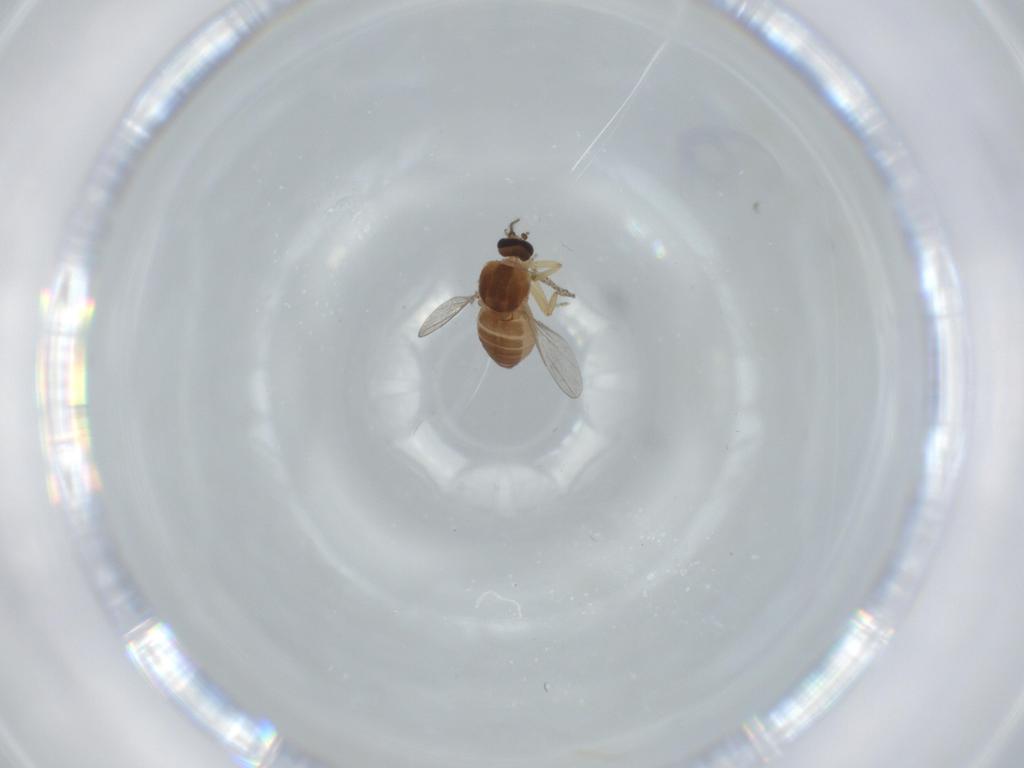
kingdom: Animalia
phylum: Arthropoda
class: Insecta
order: Diptera
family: Ceratopogonidae
